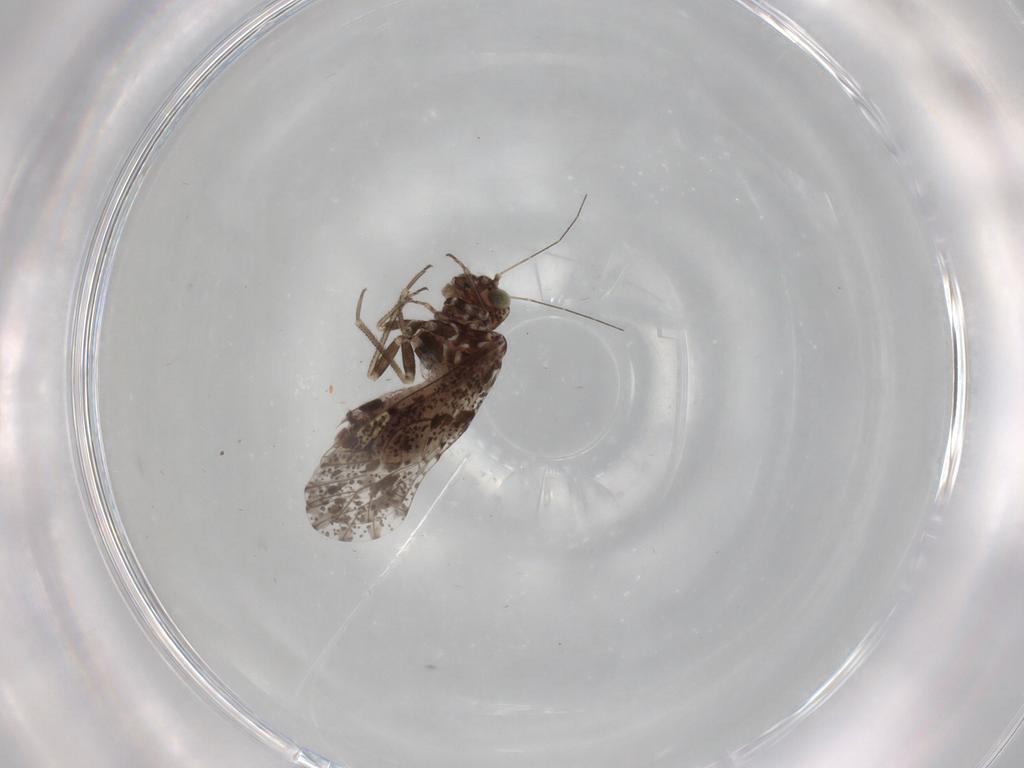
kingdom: Animalia
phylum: Arthropoda
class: Insecta
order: Psocodea
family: Psocidae
